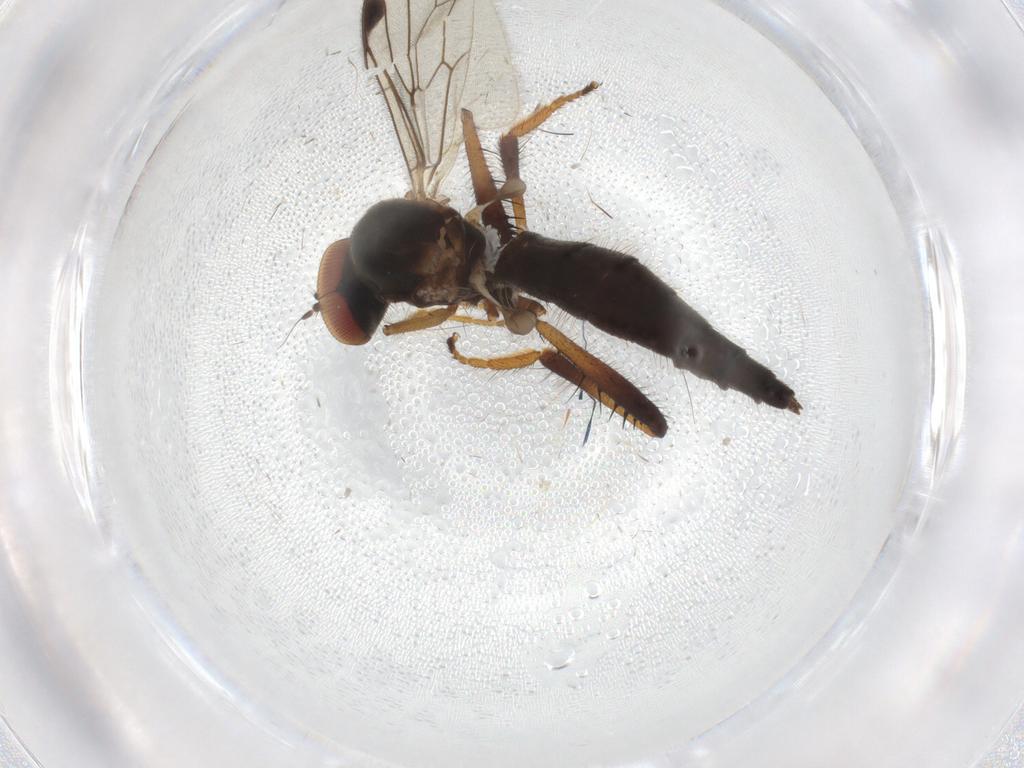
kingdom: Animalia
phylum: Arthropoda
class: Insecta
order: Diptera
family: Hybotidae
